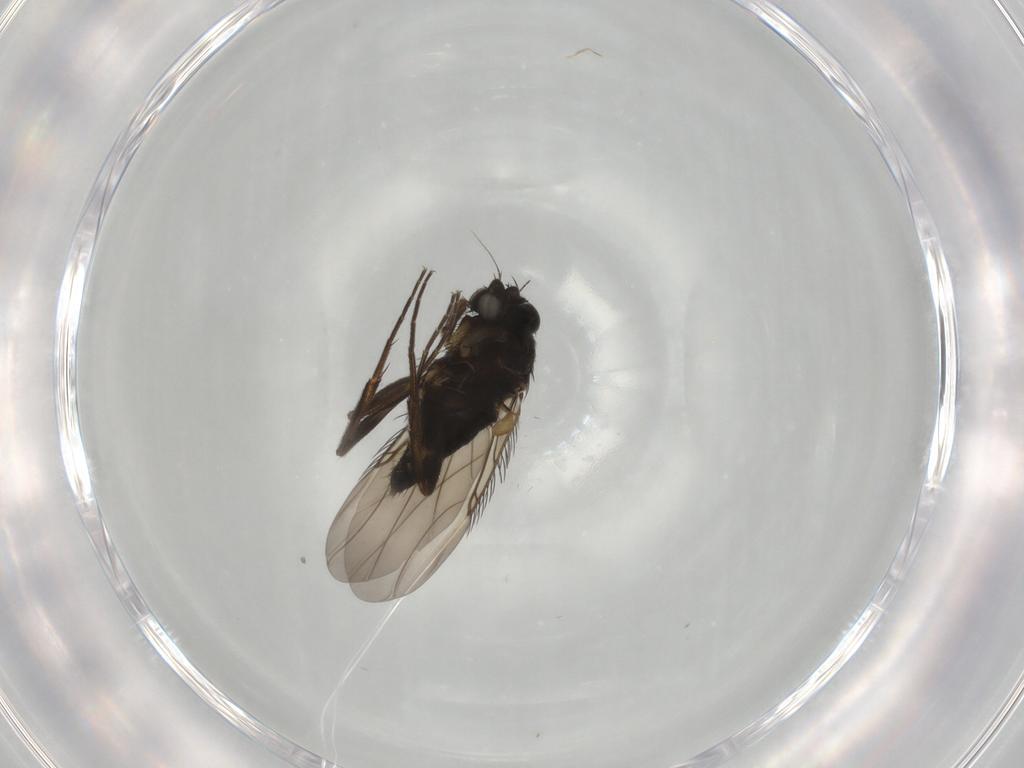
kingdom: Animalia
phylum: Arthropoda
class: Insecta
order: Diptera
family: Phoridae
